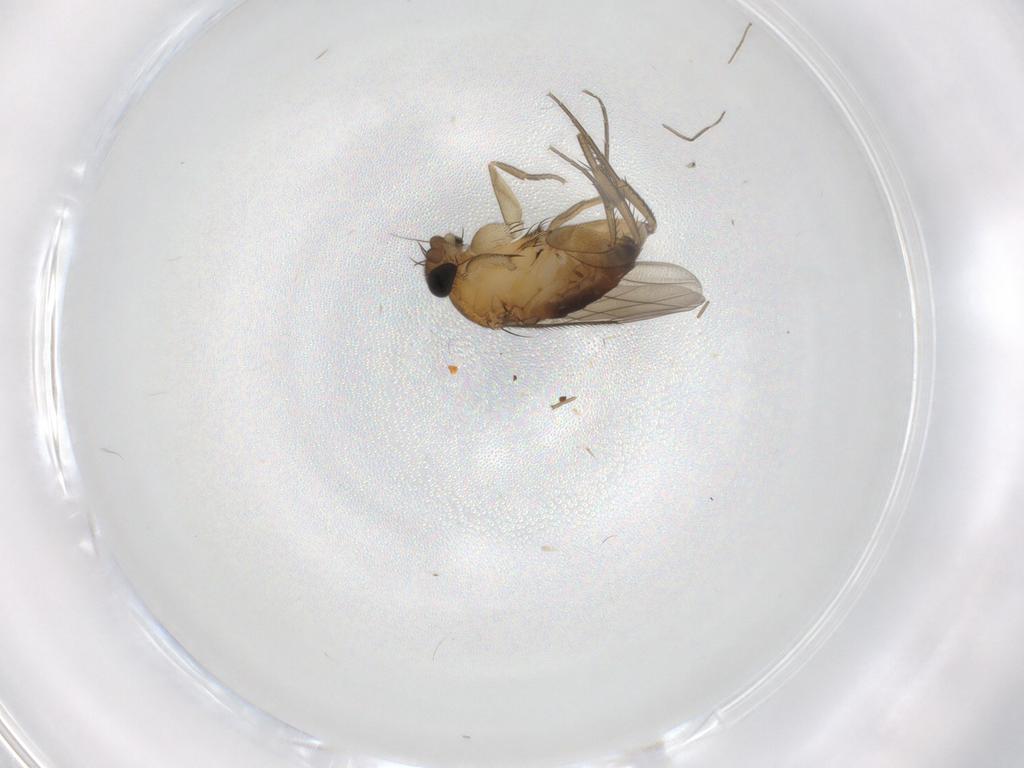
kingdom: Animalia
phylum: Arthropoda
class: Insecta
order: Diptera
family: Phoridae
